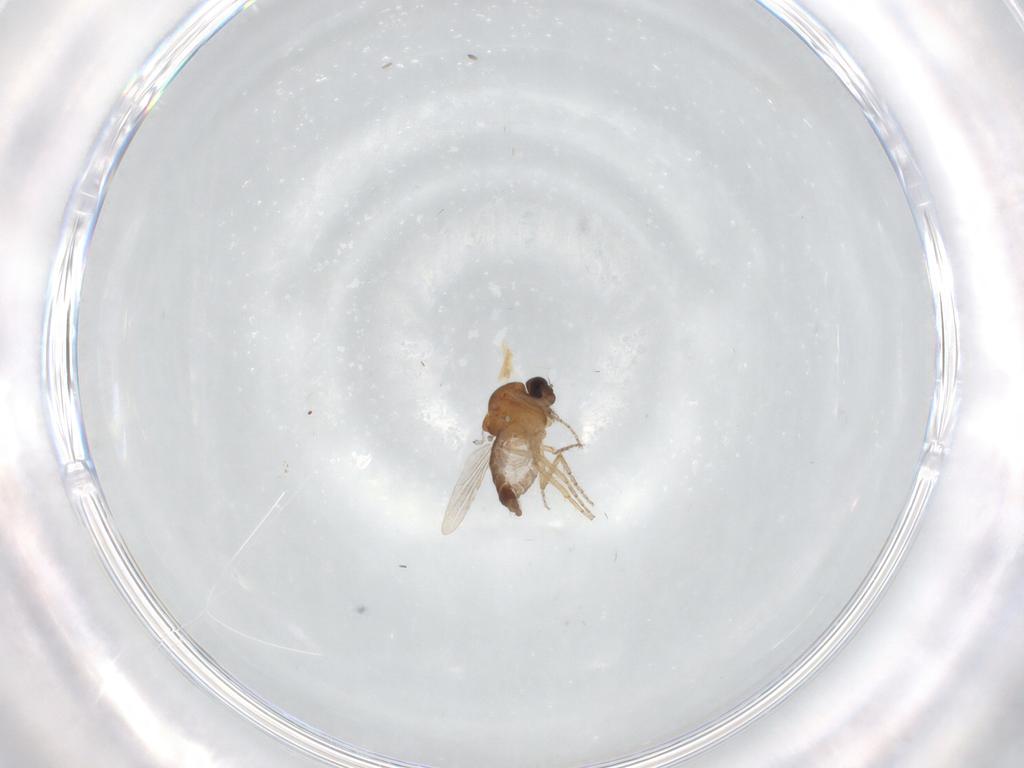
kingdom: Animalia
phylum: Arthropoda
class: Insecta
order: Diptera
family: Ceratopogonidae
